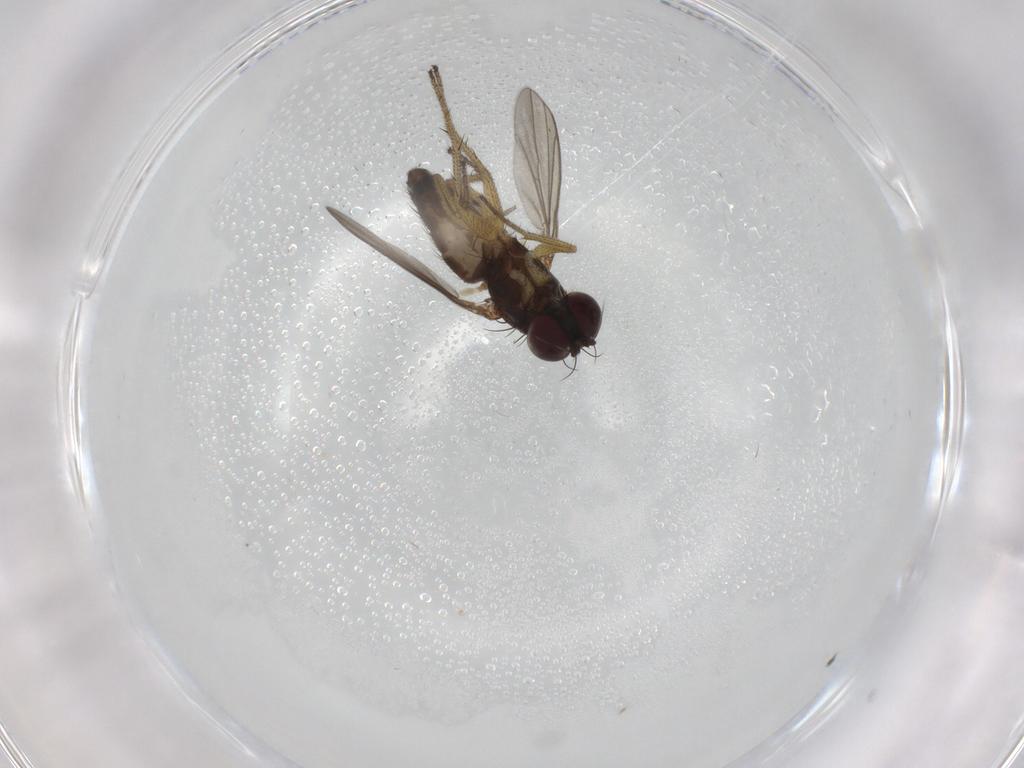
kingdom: Animalia
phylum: Arthropoda
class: Insecta
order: Diptera
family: Sciaridae
